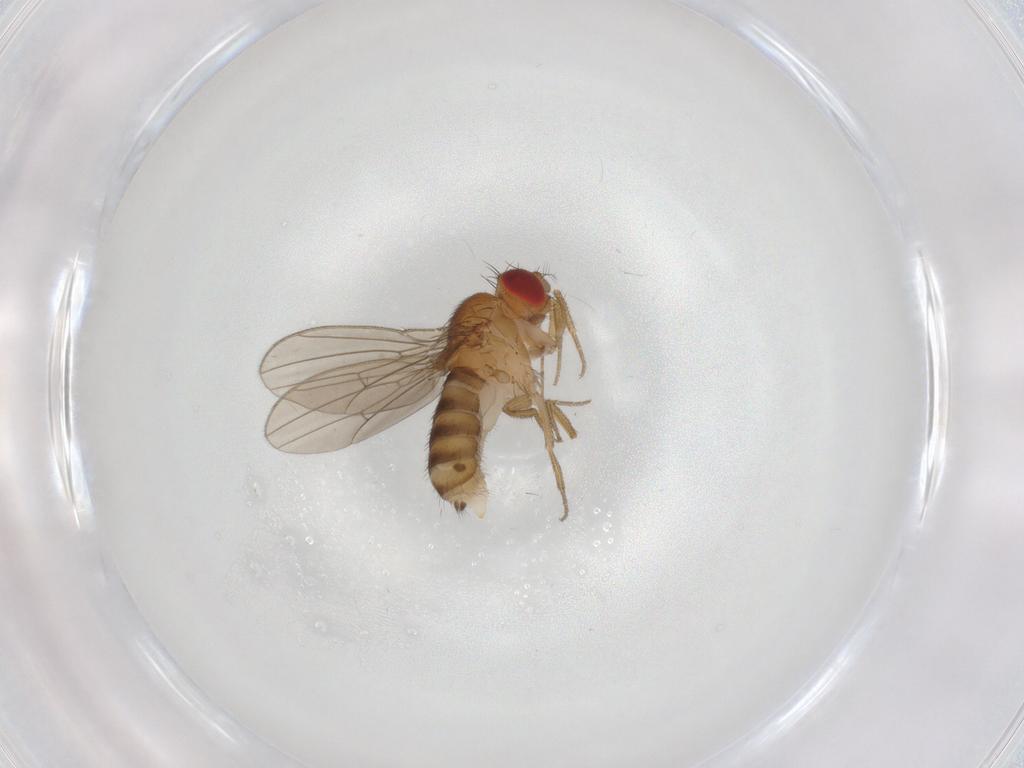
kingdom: Animalia
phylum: Arthropoda
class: Insecta
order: Diptera
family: Drosophilidae
